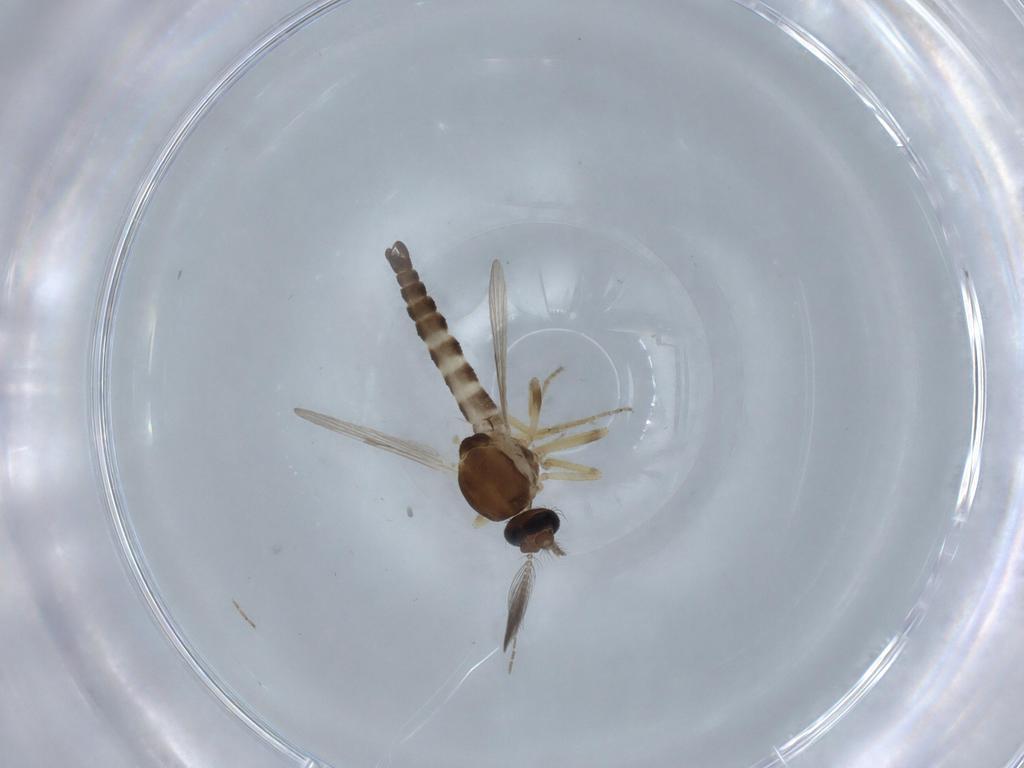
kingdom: Animalia
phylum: Arthropoda
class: Insecta
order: Diptera
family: Ceratopogonidae
